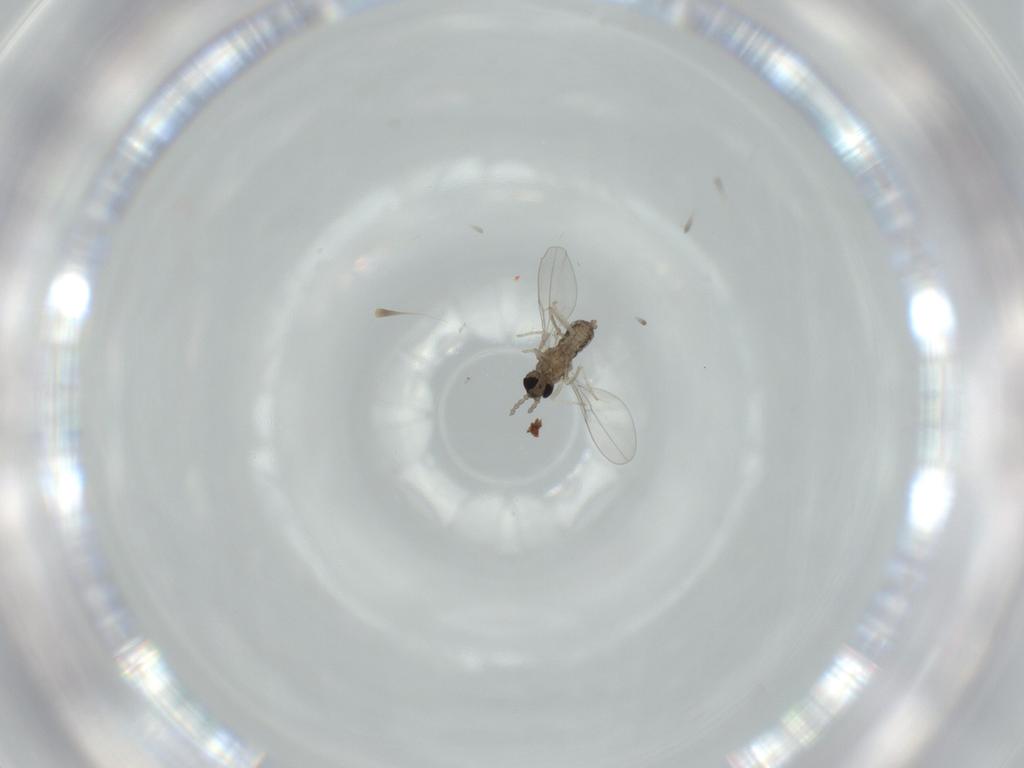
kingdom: Animalia
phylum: Arthropoda
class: Insecta
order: Diptera
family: Cecidomyiidae
